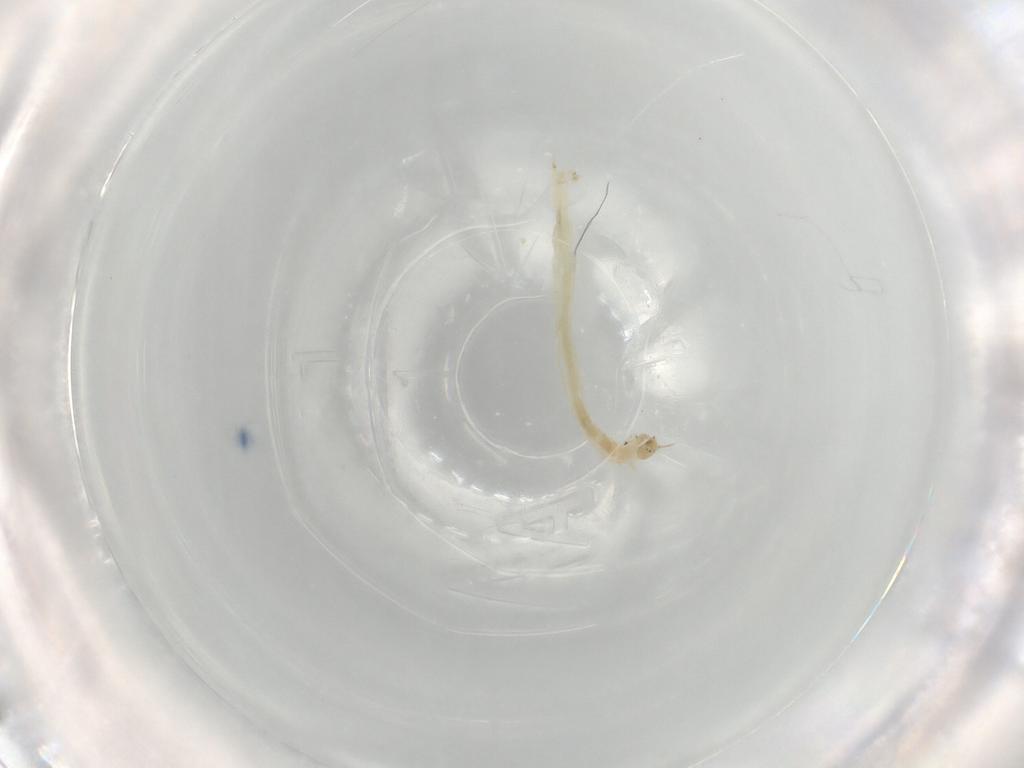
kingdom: Animalia
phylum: Arthropoda
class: Insecta
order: Diptera
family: Chironomidae
